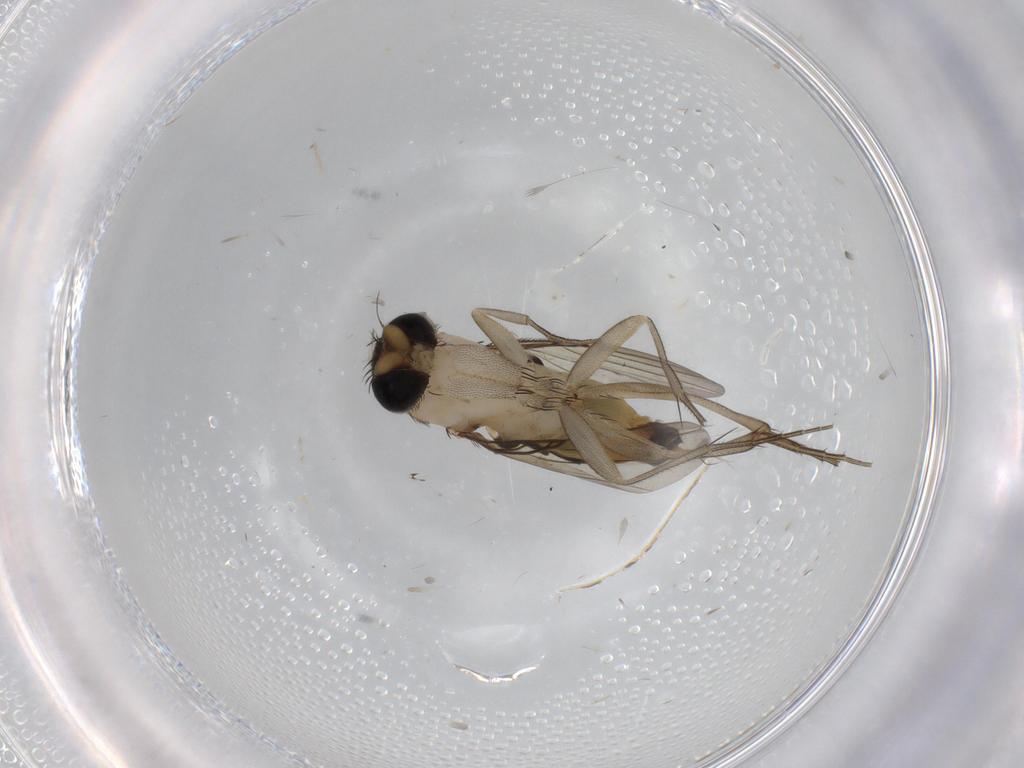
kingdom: Animalia
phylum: Arthropoda
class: Insecta
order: Diptera
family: Phoridae
